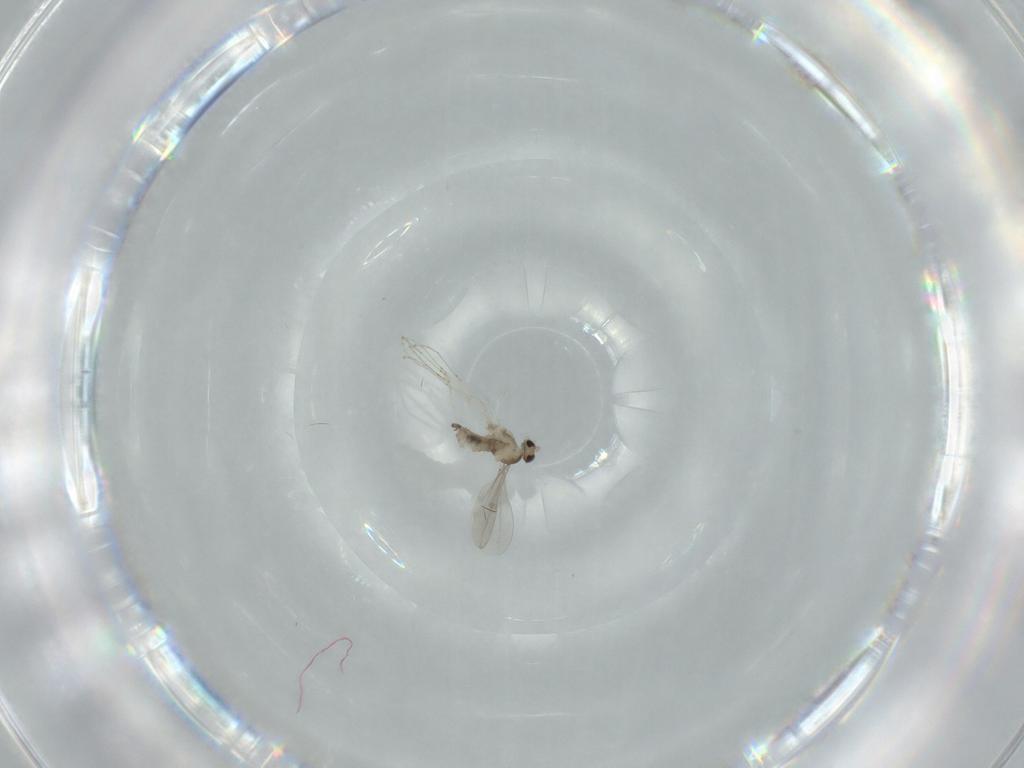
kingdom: Animalia
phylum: Arthropoda
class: Insecta
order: Diptera
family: Cecidomyiidae
